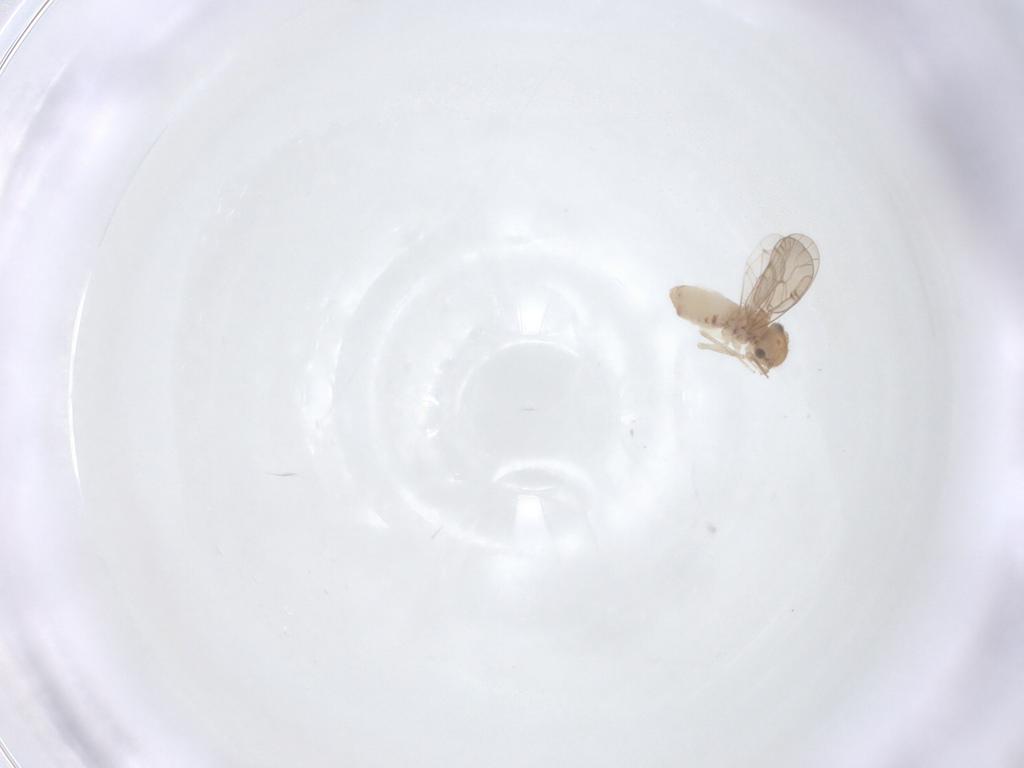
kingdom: Animalia
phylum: Arthropoda
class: Insecta
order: Psocodea
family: Ectopsocidae
